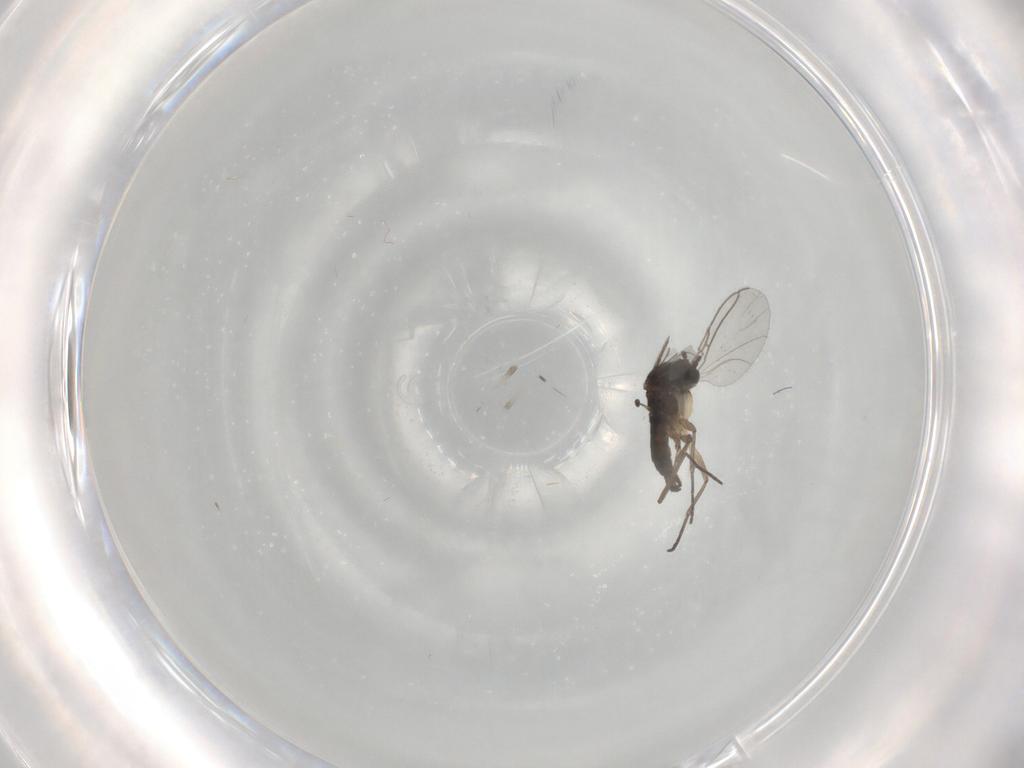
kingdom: Animalia
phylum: Arthropoda
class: Insecta
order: Diptera
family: Sciaridae
